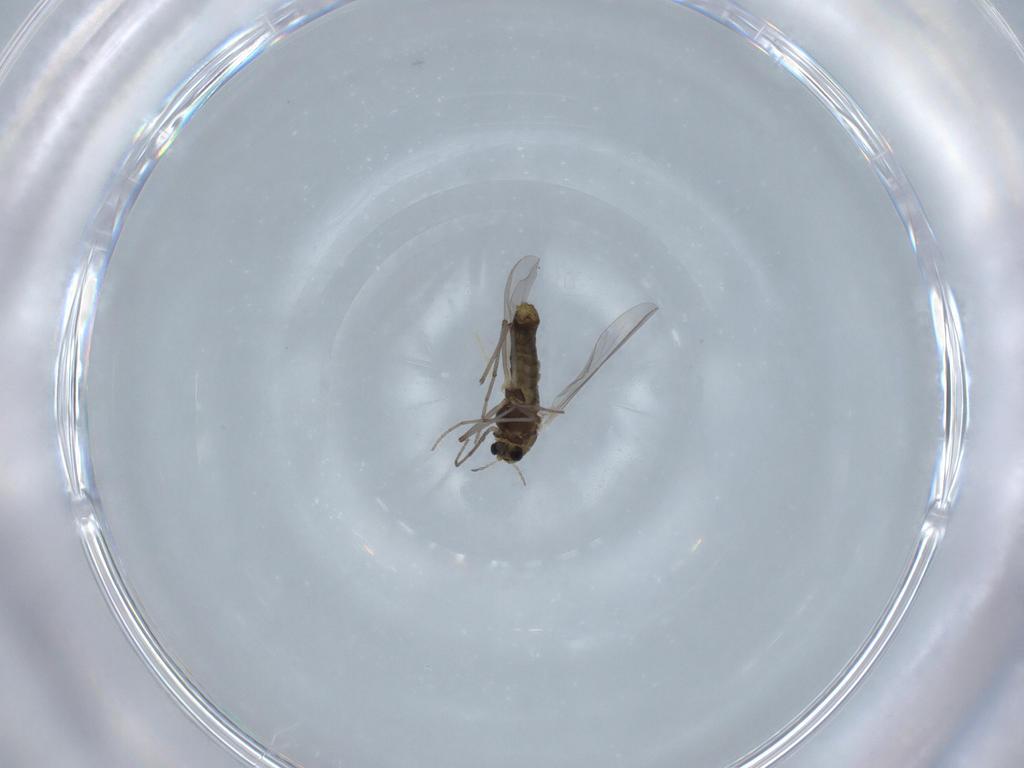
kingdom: Animalia
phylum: Arthropoda
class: Insecta
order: Diptera
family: Chironomidae
